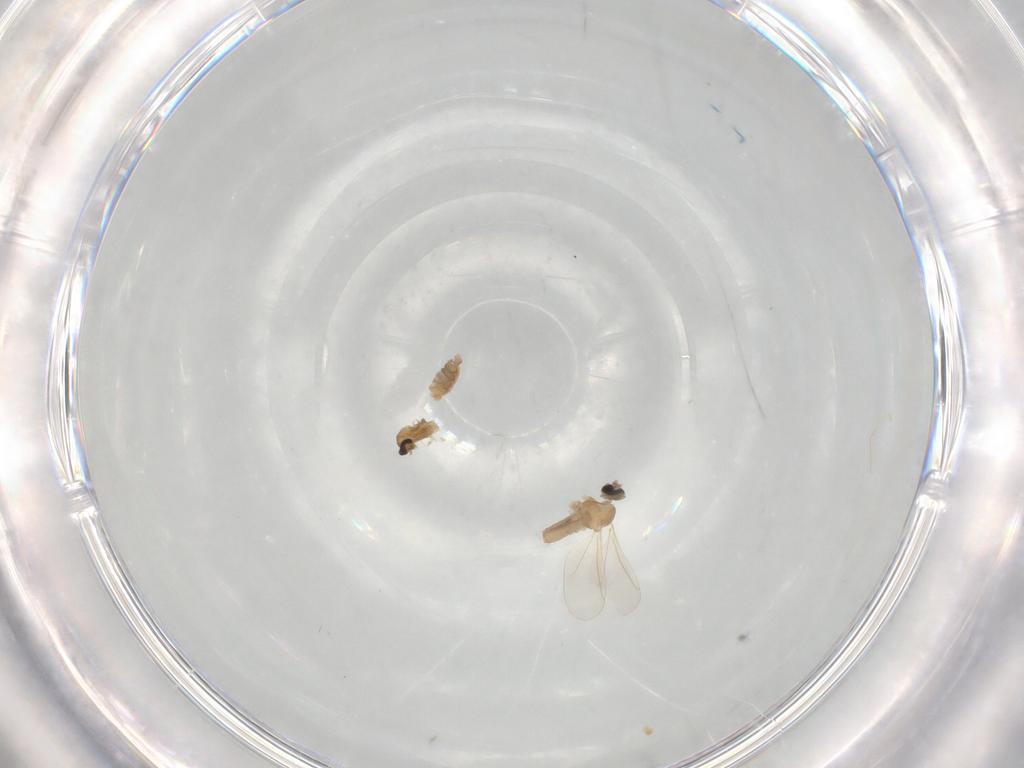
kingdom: Animalia
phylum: Arthropoda
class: Insecta
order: Diptera
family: Cecidomyiidae
